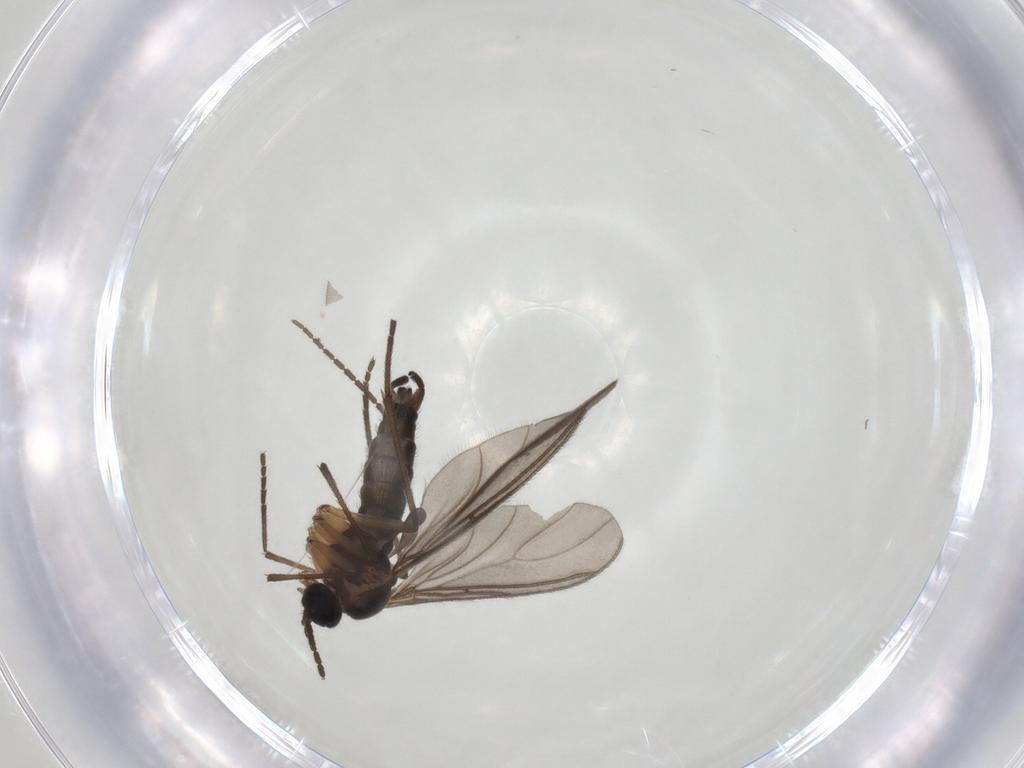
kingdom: Animalia
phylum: Arthropoda
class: Insecta
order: Diptera
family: Sciaridae
